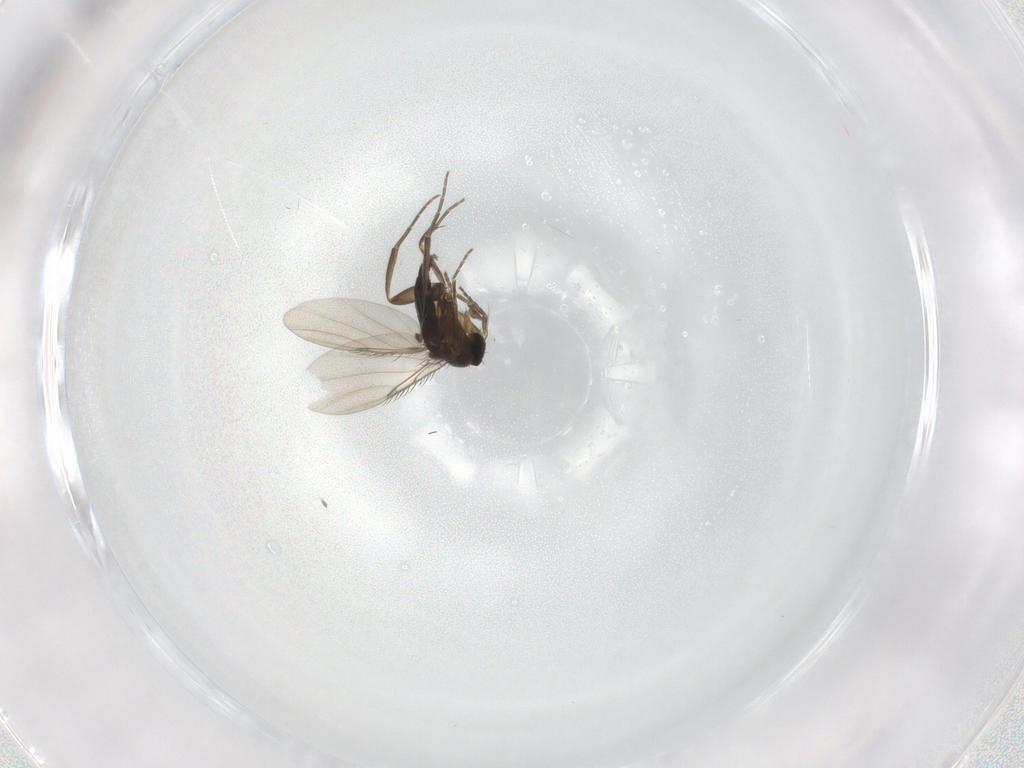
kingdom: Animalia
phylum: Arthropoda
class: Insecta
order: Diptera
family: Phoridae
